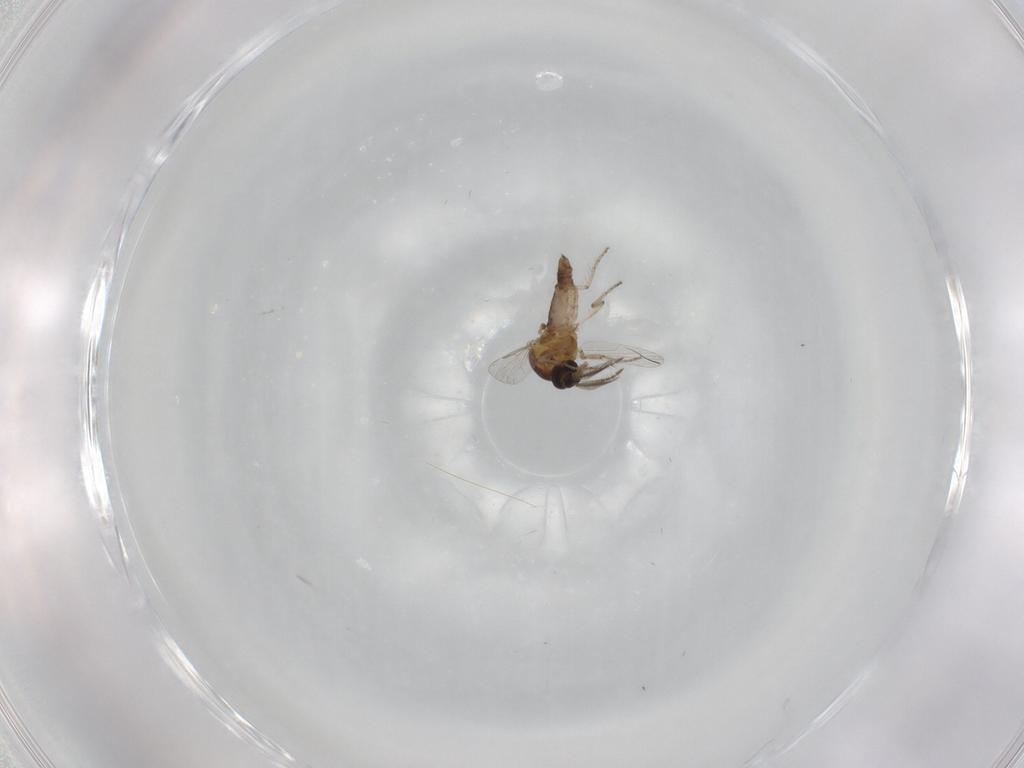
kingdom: Animalia
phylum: Arthropoda
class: Insecta
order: Diptera
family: Ceratopogonidae
